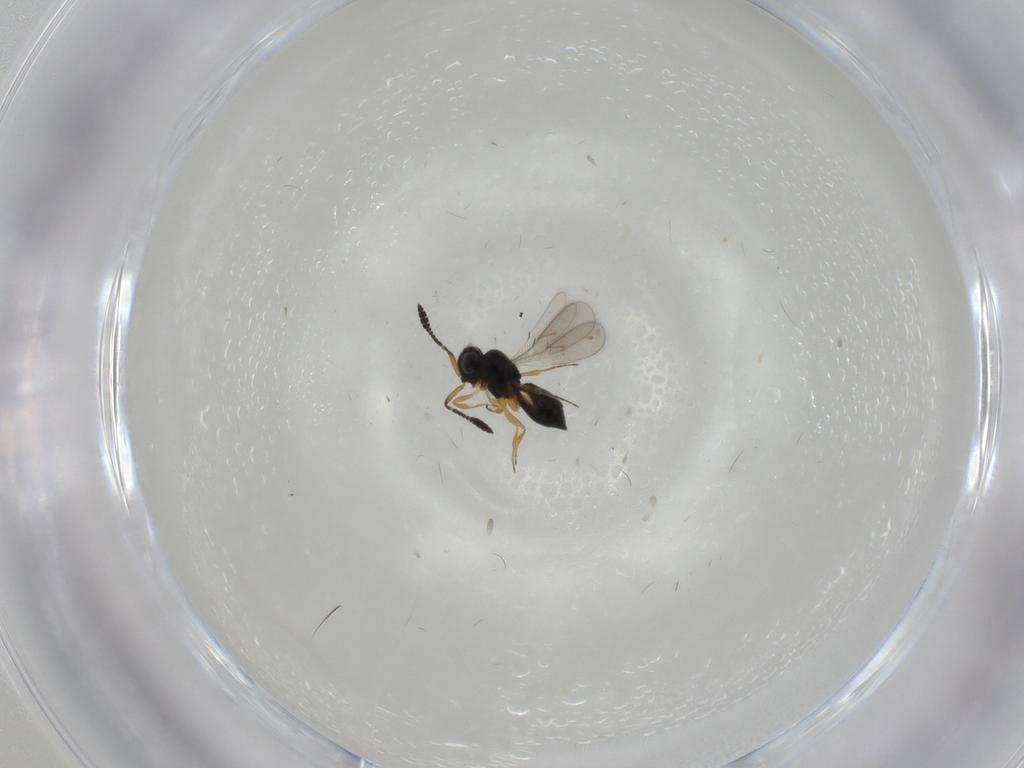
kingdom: Animalia
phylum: Arthropoda
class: Insecta
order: Hymenoptera
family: Scelionidae
